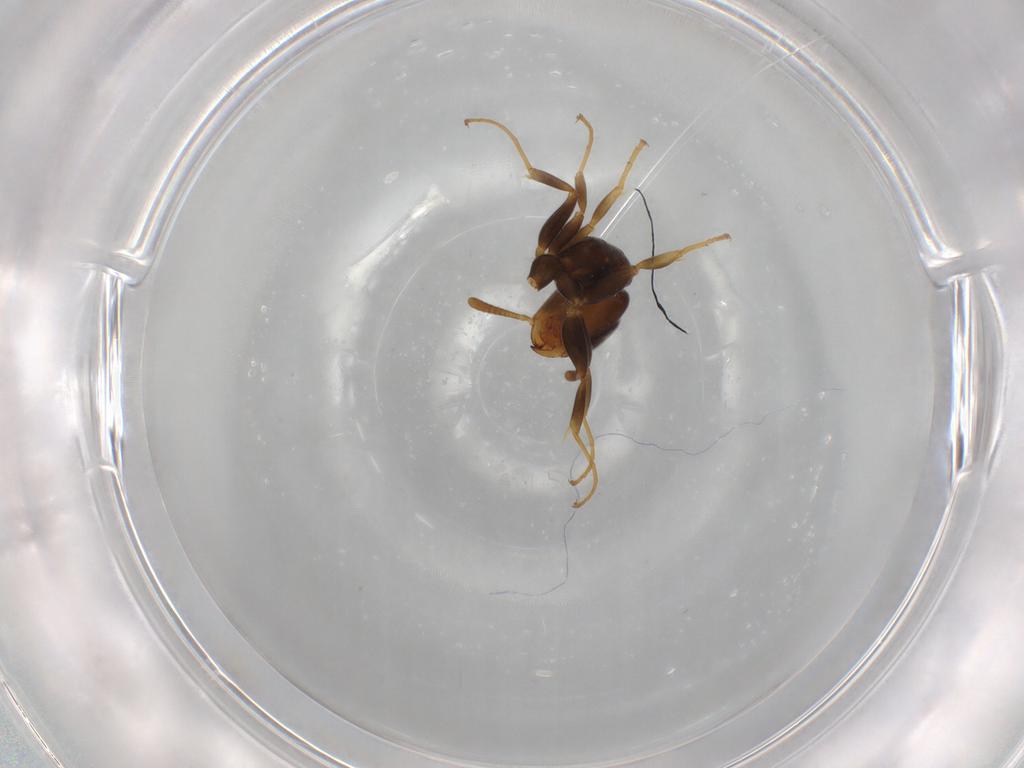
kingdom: Animalia
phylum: Arthropoda
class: Insecta
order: Hymenoptera
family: Formicidae
